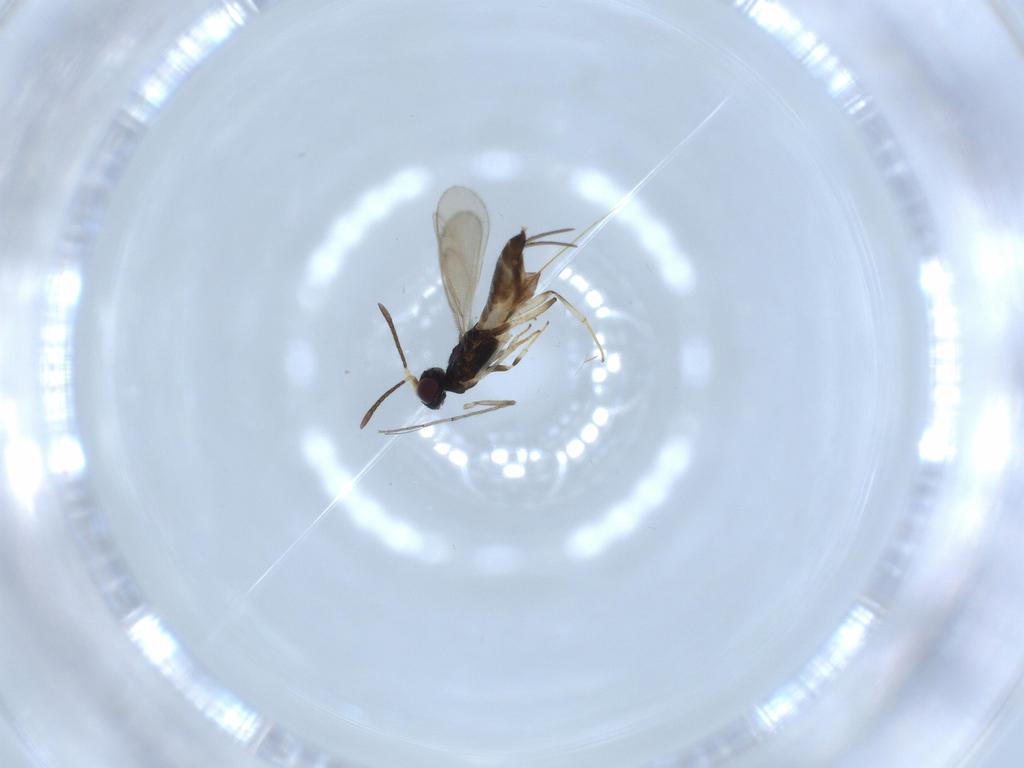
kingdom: Animalia
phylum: Arthropoda
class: Insecta
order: Hymenoptera
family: Eupelmidae
